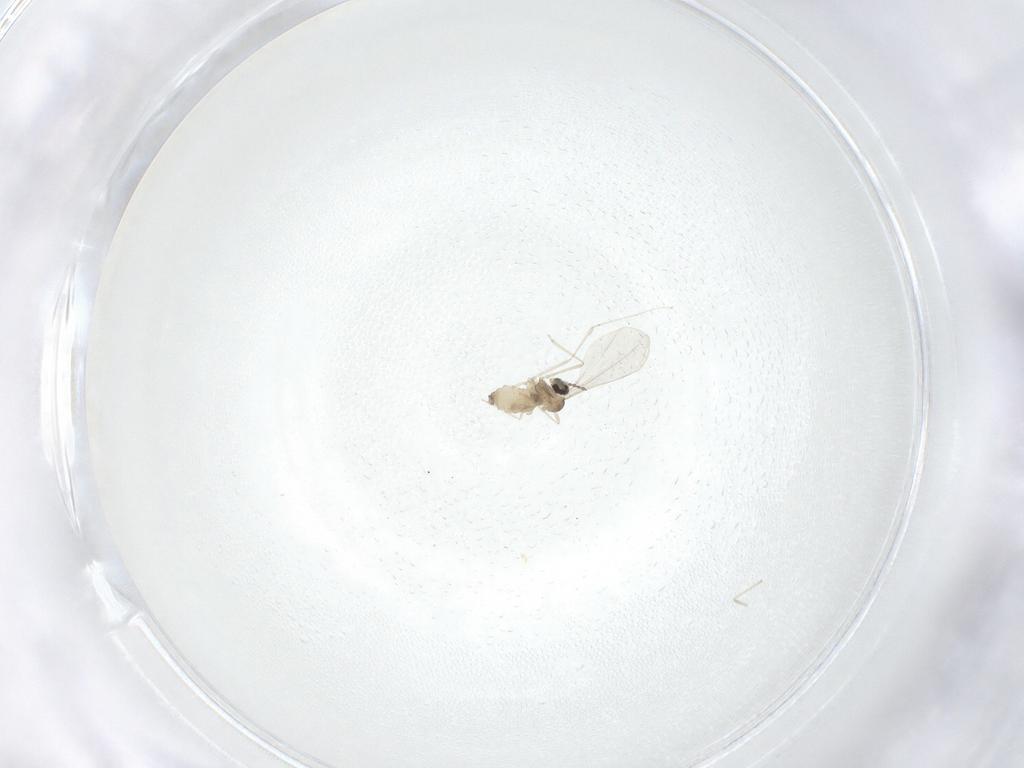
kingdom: Animalia
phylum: Arthropoda
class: Insecta
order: Diptera
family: Cecidomyiidae
